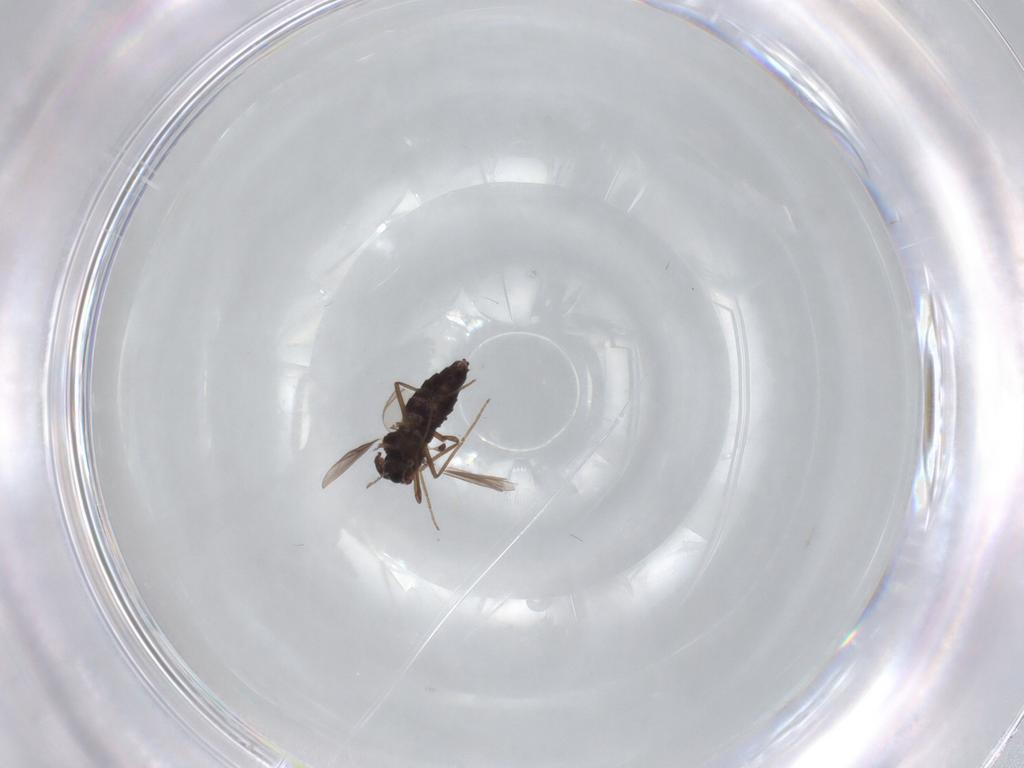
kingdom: Animalia
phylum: Arthropoda
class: Insecta
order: Diptera
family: Chironomidae
